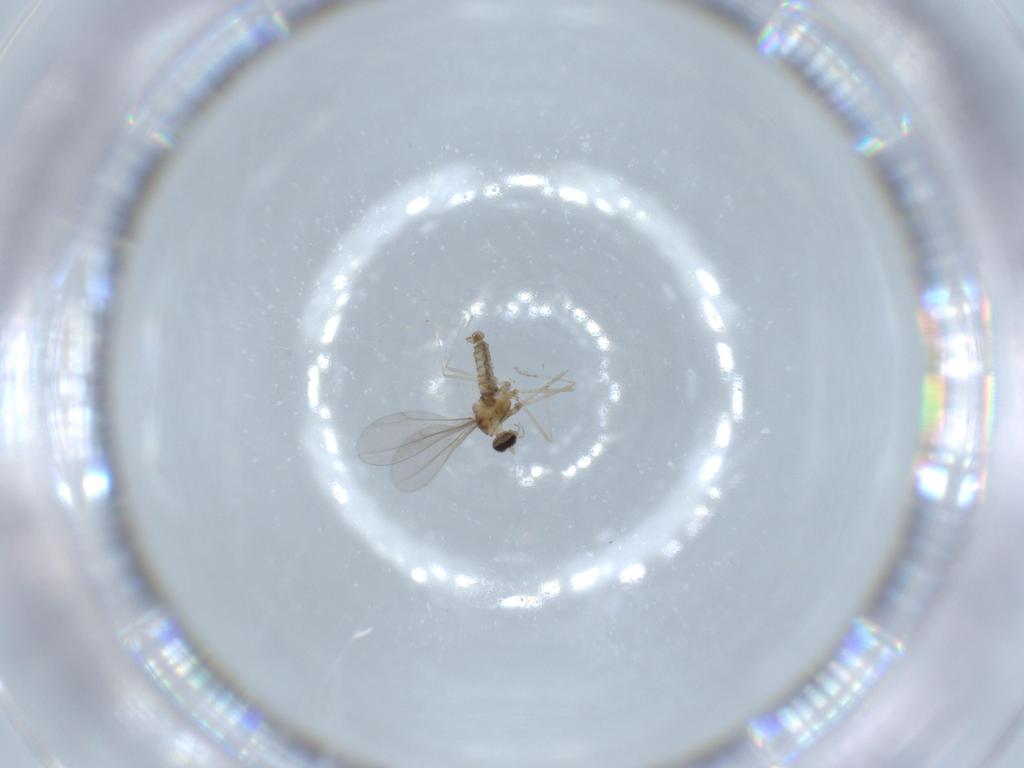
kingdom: Animalia
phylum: Arthropoda
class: Insecta
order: Diptera
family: Cecidomyiidae
